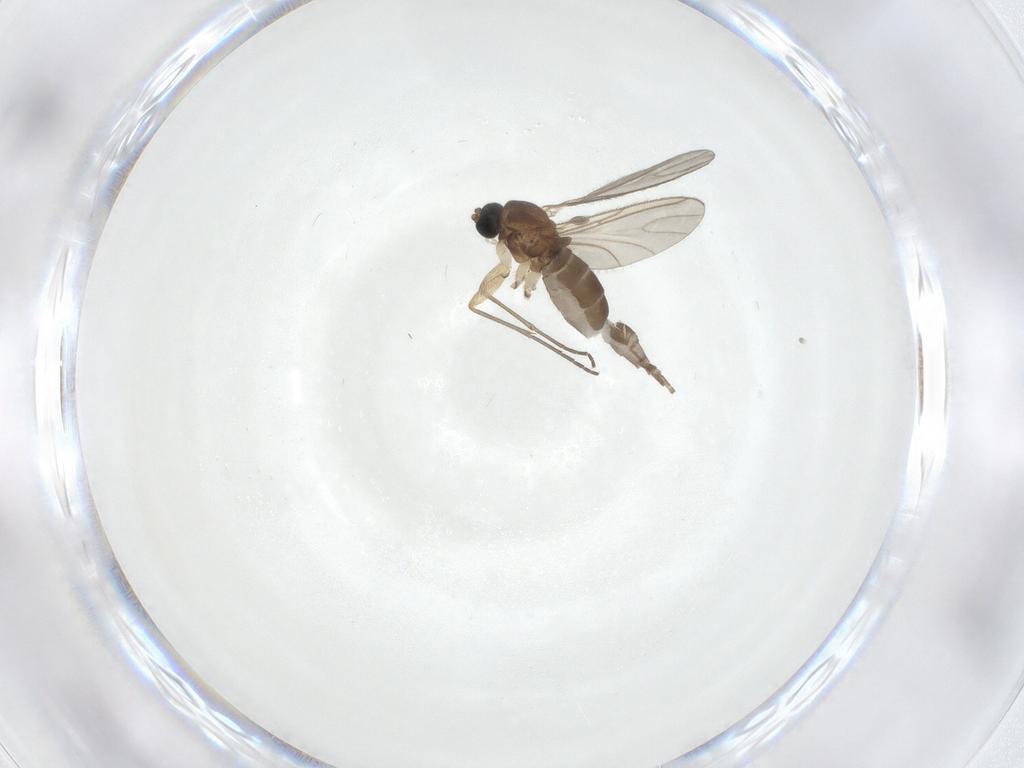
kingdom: Animalia
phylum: Arthropoda
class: Insecta
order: Diptera
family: Sciaridae
